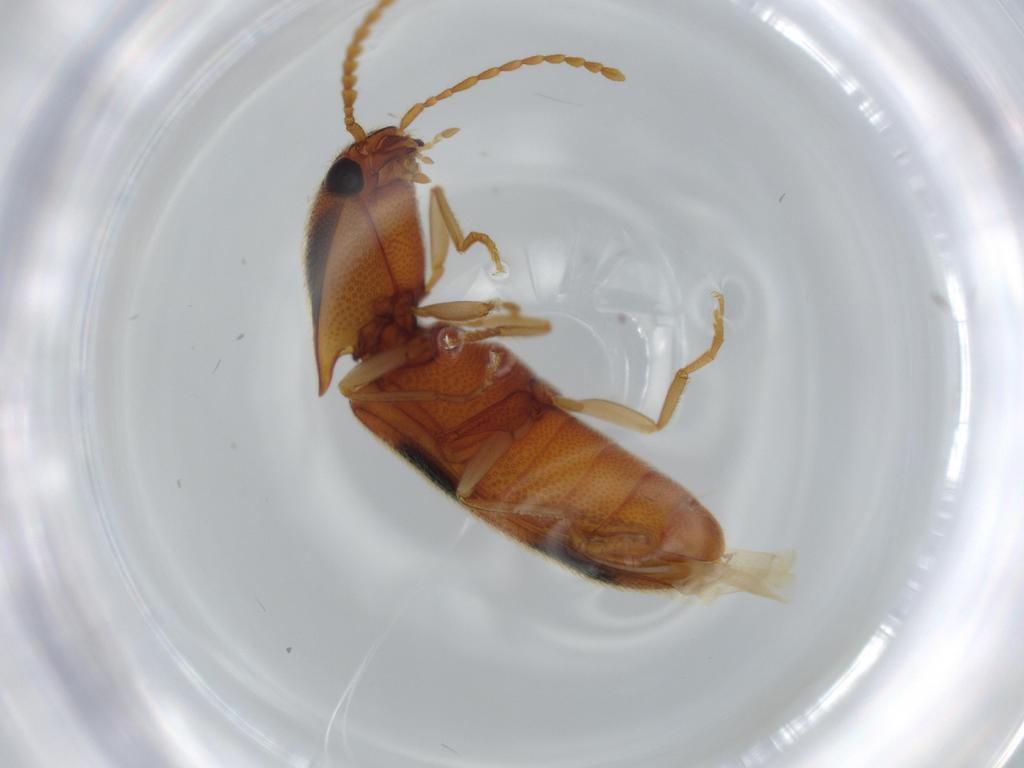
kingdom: Animalia
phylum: Arthropoda
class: Insecta
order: Coleoptera
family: Elateridae
